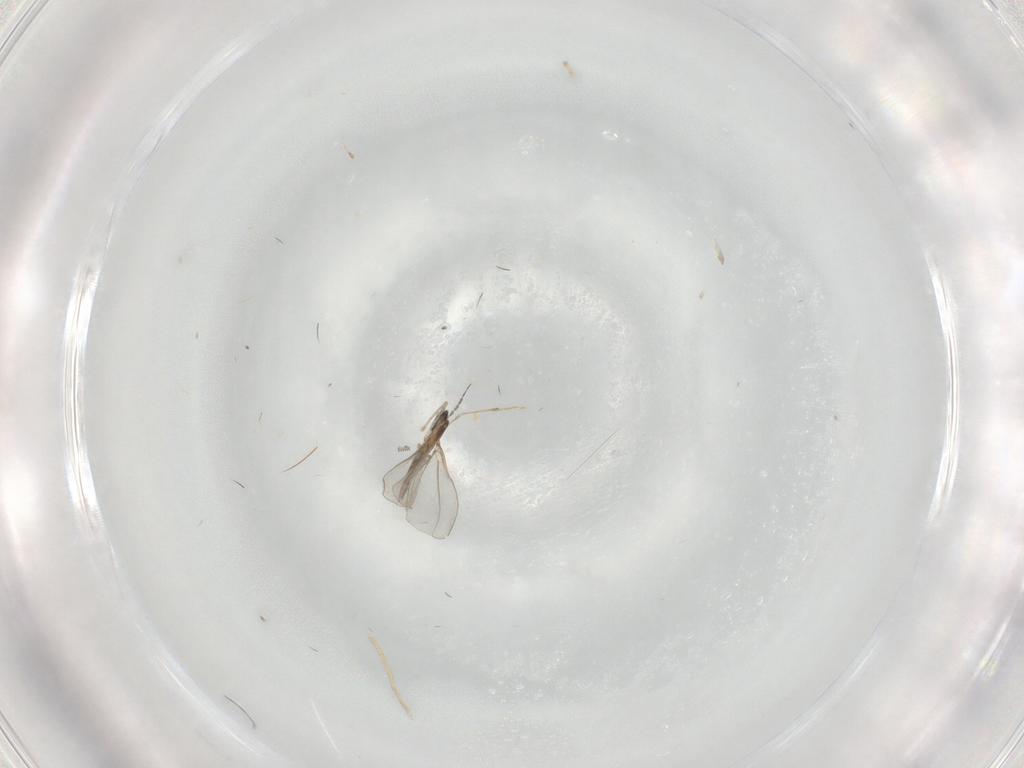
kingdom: Animalia
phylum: Arthropoda
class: Insecta
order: Diptera
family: Cecidomyiidae
